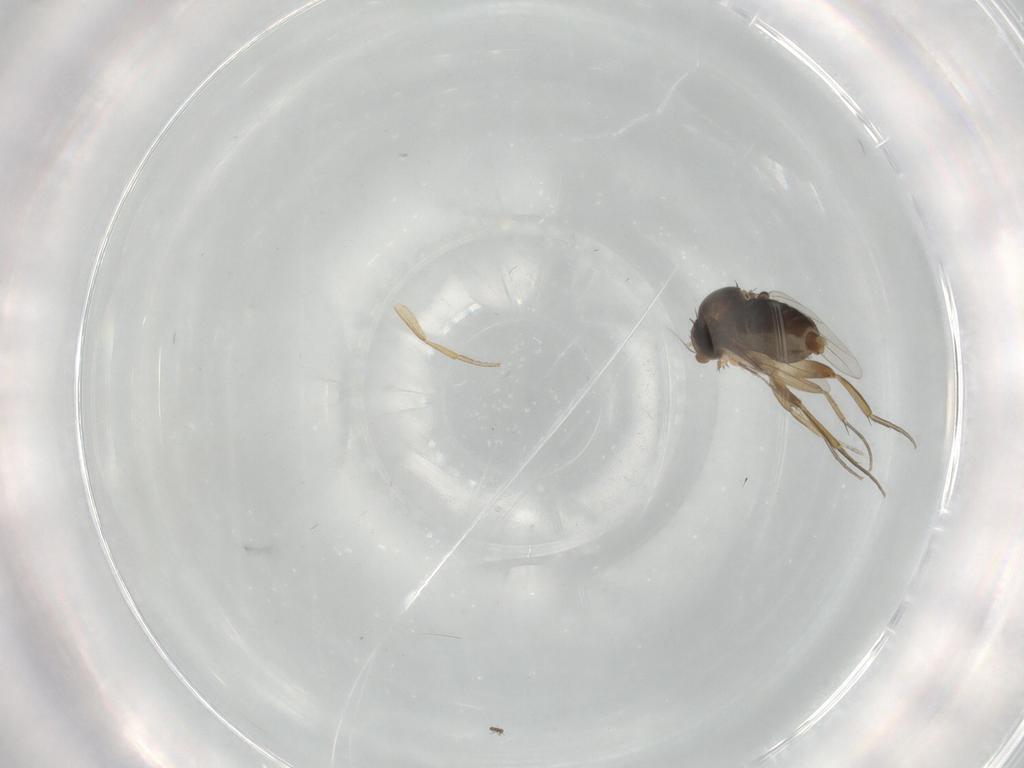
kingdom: Animalia
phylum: Arthropoda
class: Insecta
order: Diptera
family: Phoridae
